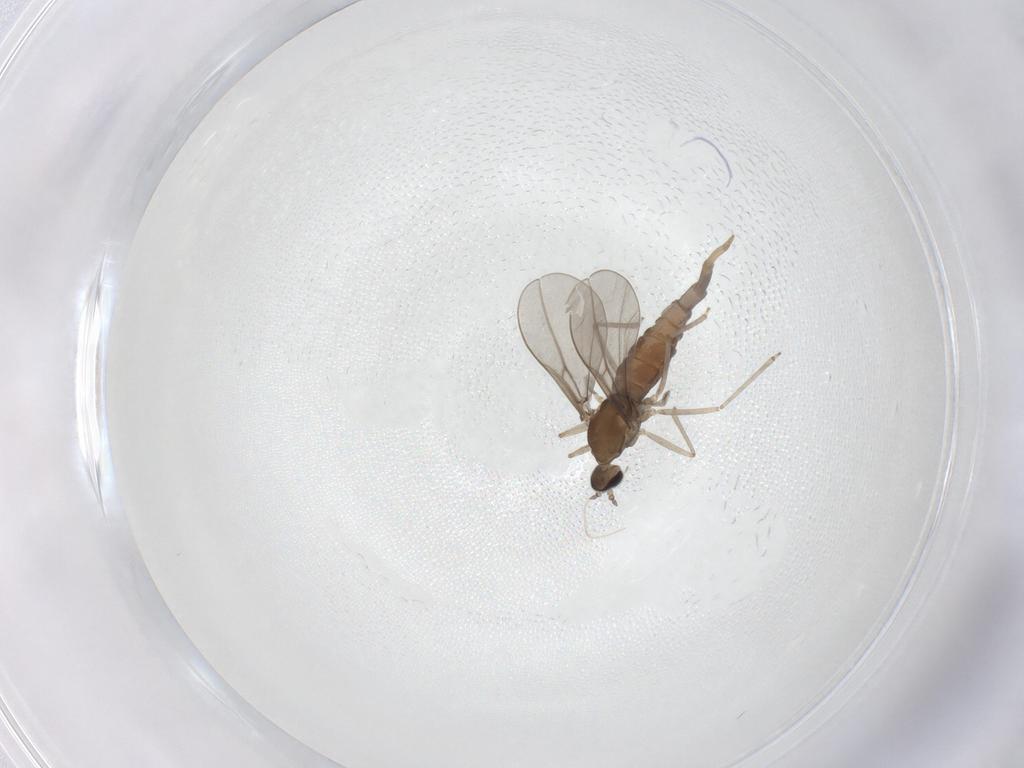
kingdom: Animalia
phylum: Arthropoda
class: Insecta
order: Diptera
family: Cecidomyiidae
